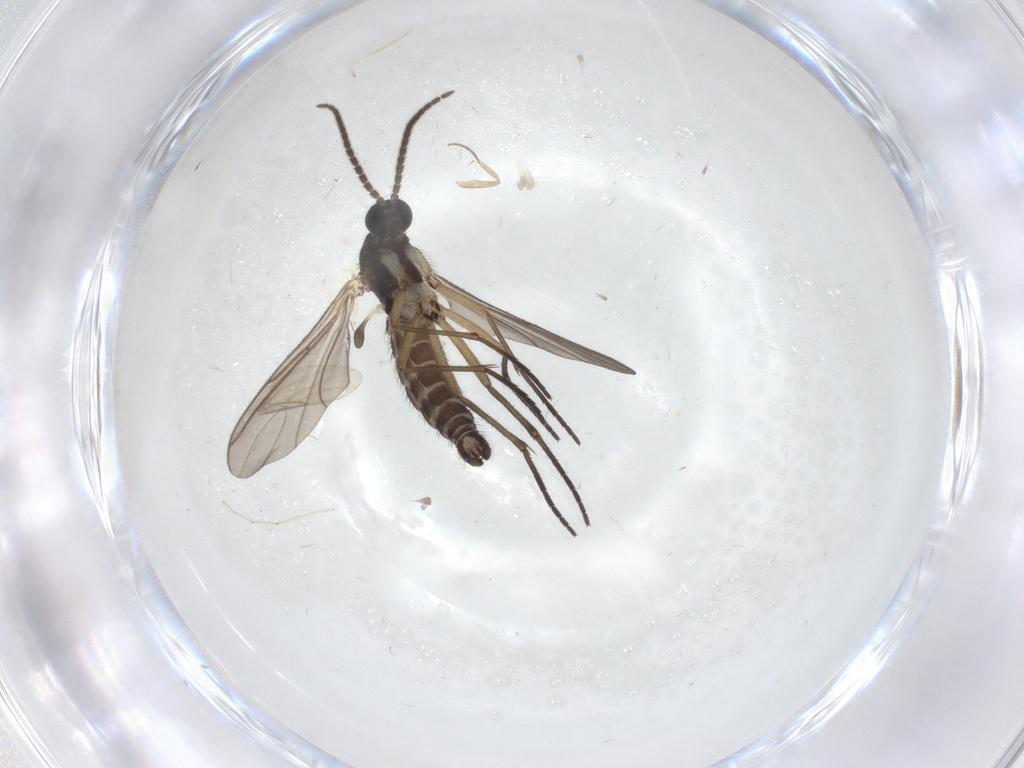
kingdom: Animalia
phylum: Arthropoda
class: Insecta
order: Diptera
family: Sciaridae
